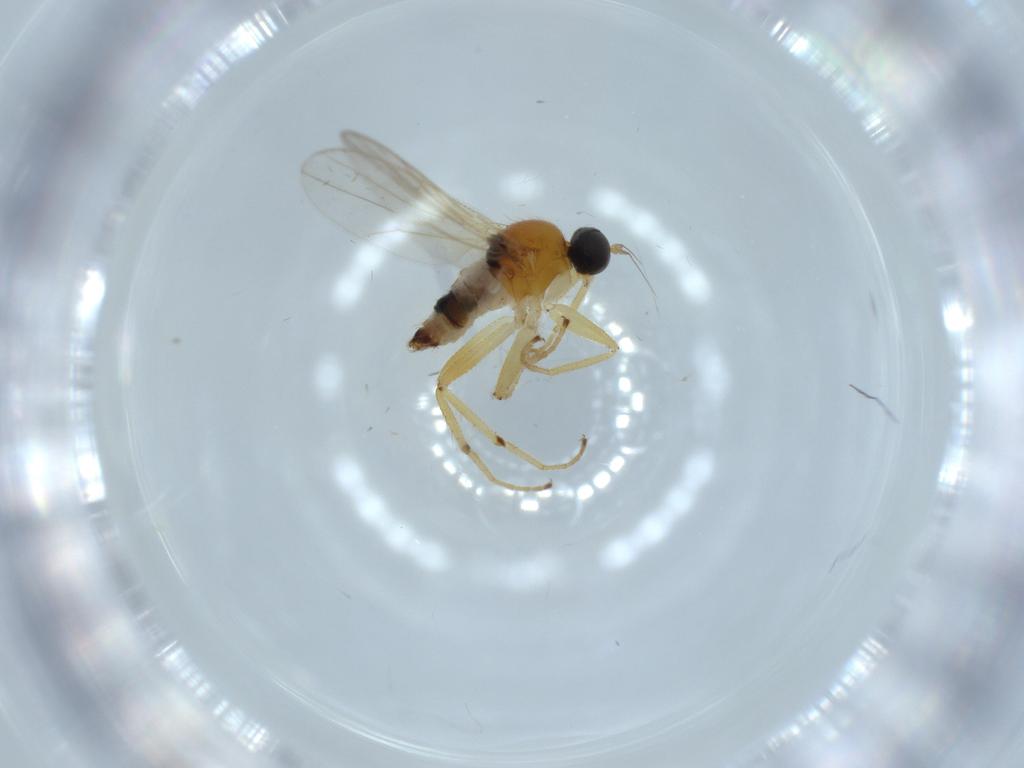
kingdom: Animalia
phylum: Arthropoda
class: Insecta
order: Diptera
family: Hybotidae
